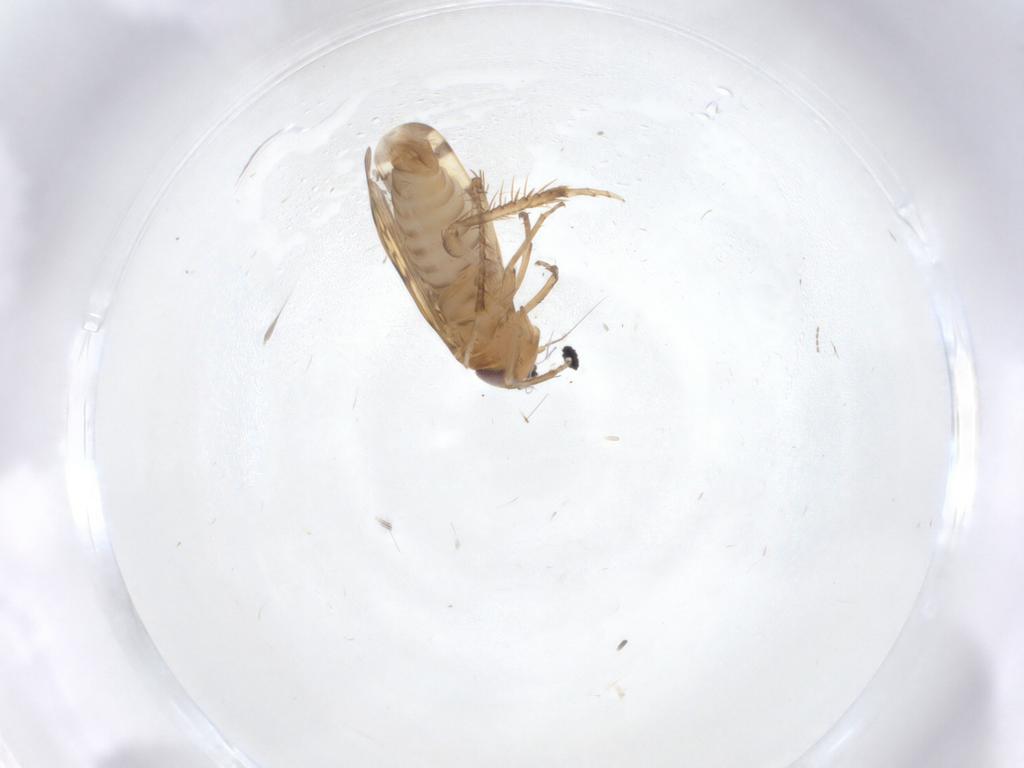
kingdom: Animalia
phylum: Arthropoda
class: Insecta
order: Hemiptera
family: Cicadellidae
